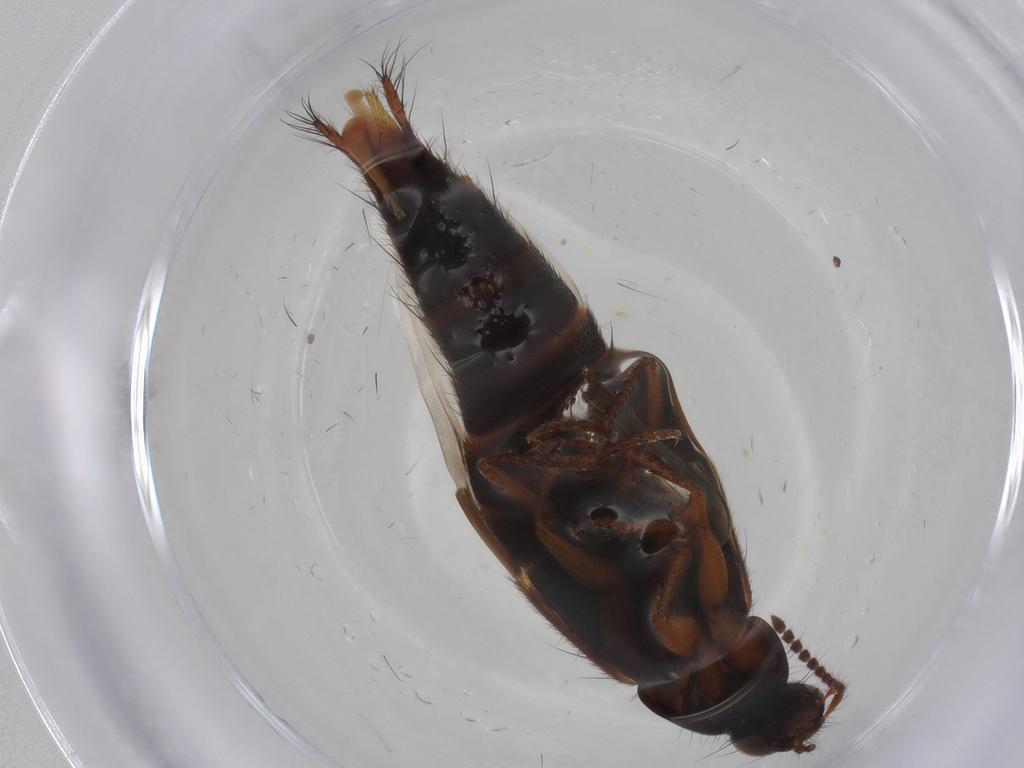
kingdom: Animalia
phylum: Arthropoda
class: Insecta
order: Coleoptera
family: Staphylinidae
